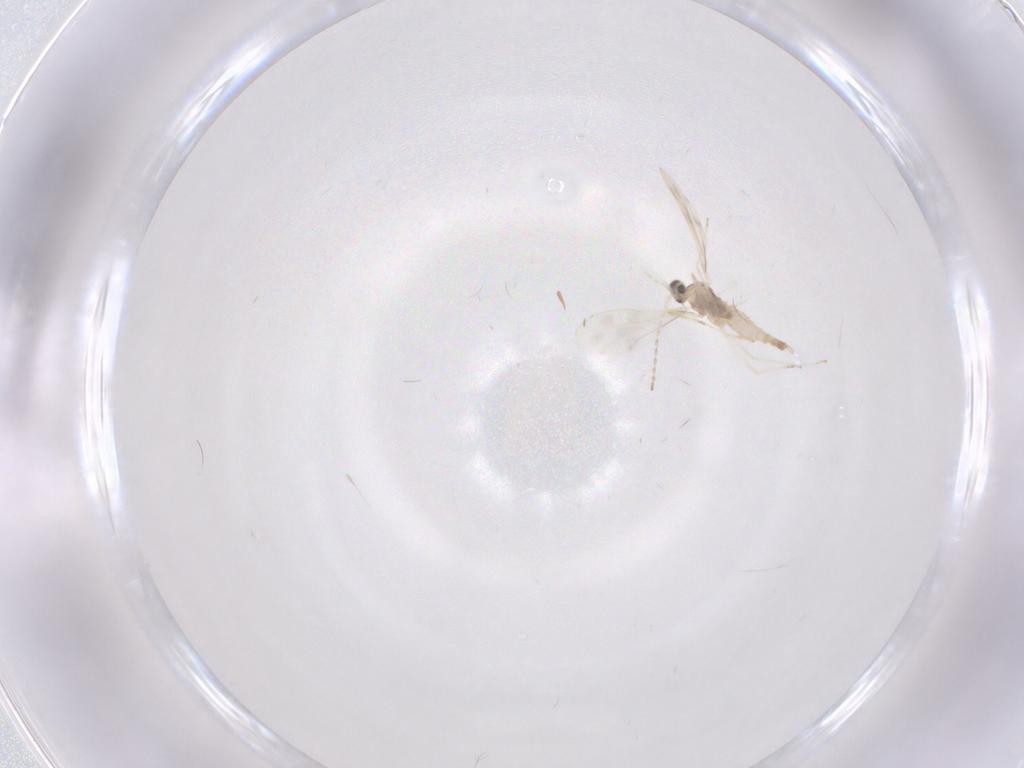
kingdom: Animalia
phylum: Arthropoda
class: Insecta
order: Diptera
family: Cecidomyiidae
